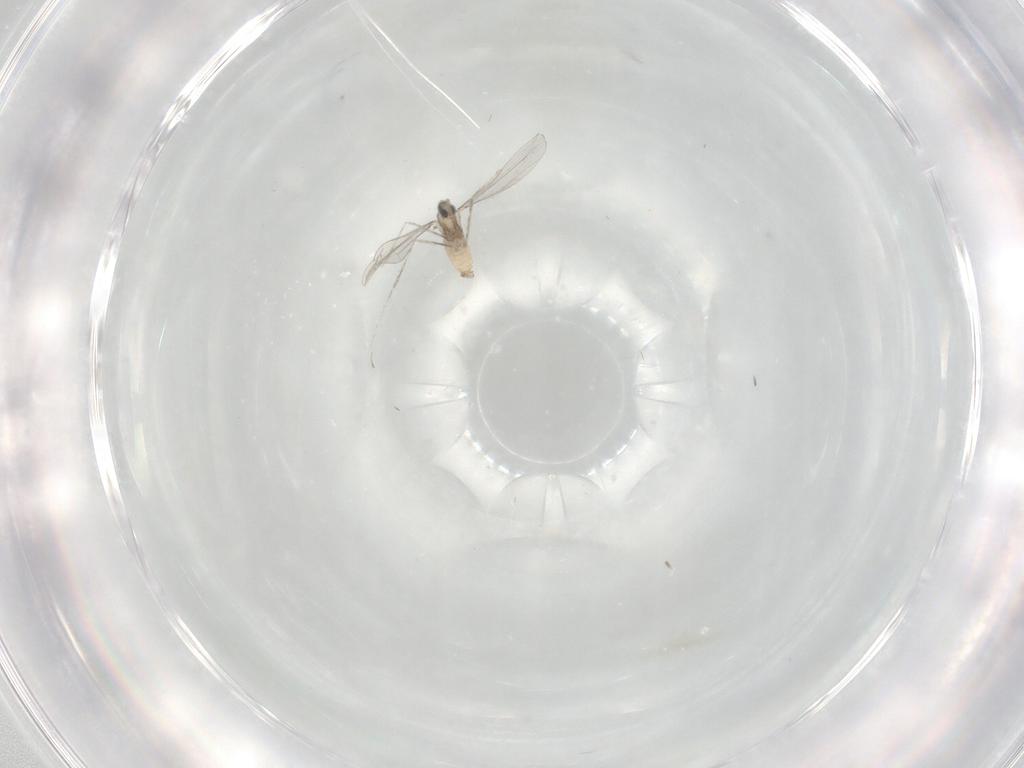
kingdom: Animalia
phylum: Arthropoda
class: Insecta
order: Diptera
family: Cecidomyiidae
